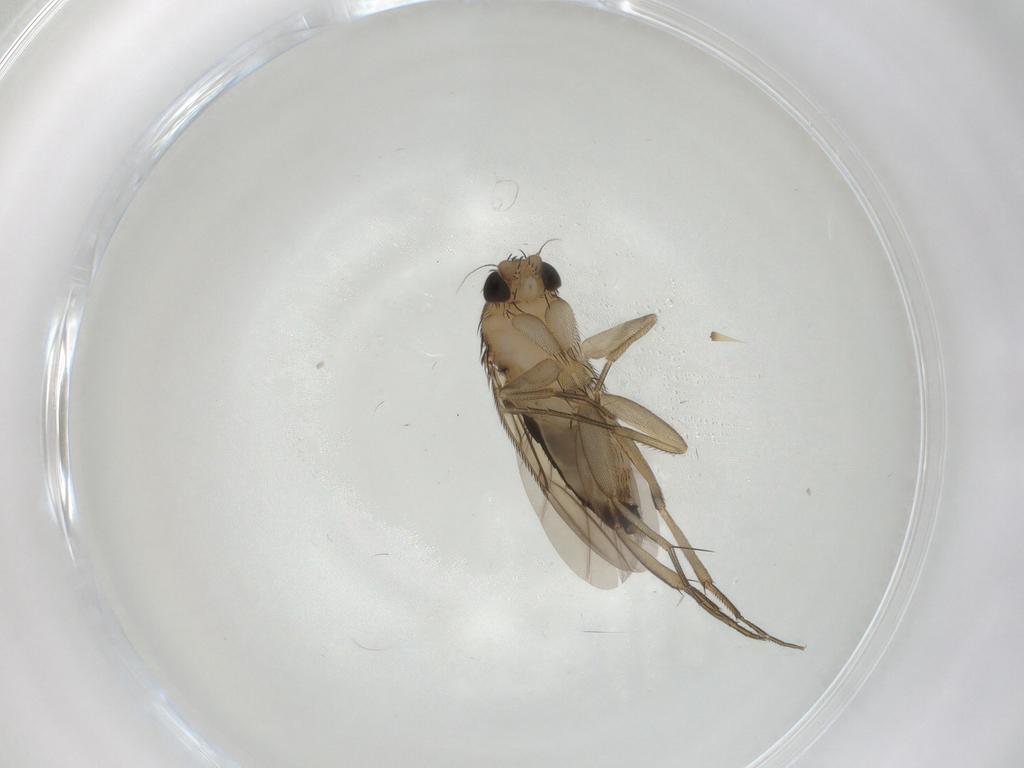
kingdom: Animalia
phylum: Arthropoda
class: Insecta
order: Diptera
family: Phoridae
